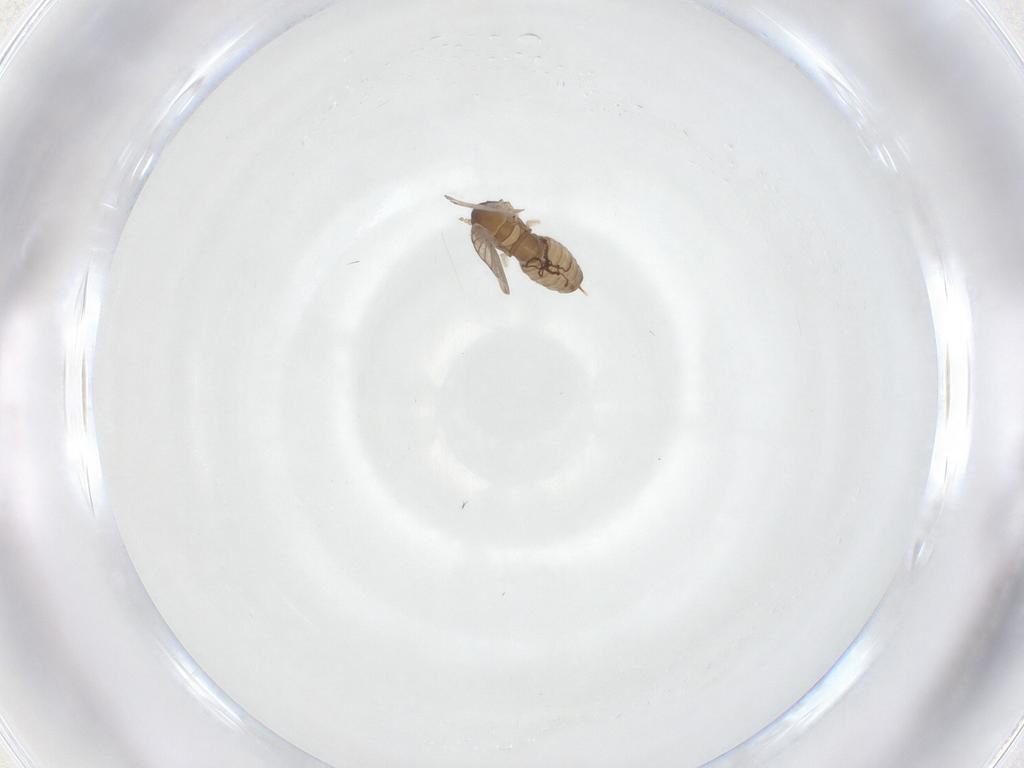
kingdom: Animalia
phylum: Arthropoda
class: Insecta
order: Diptera
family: Psychodidae
